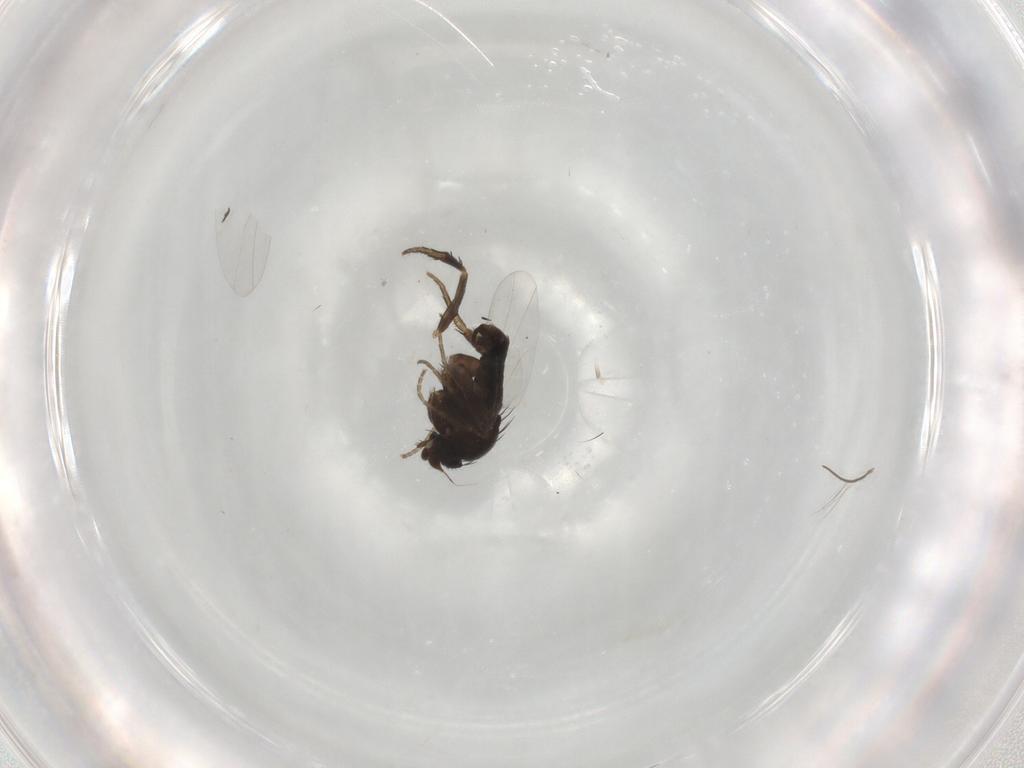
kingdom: Animalia
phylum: Arthropoda
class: Insecta
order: Diptera
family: Phoridae
